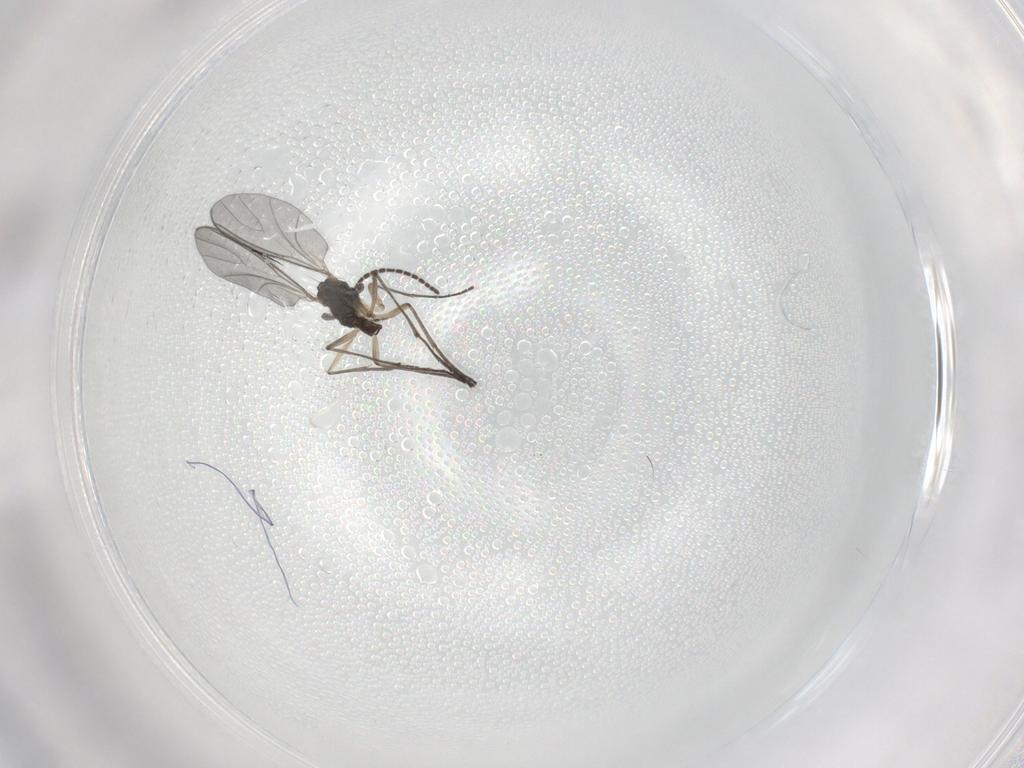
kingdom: Animalia
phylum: Arthropoda
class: Insecta
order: Diptera
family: Sciaridae
